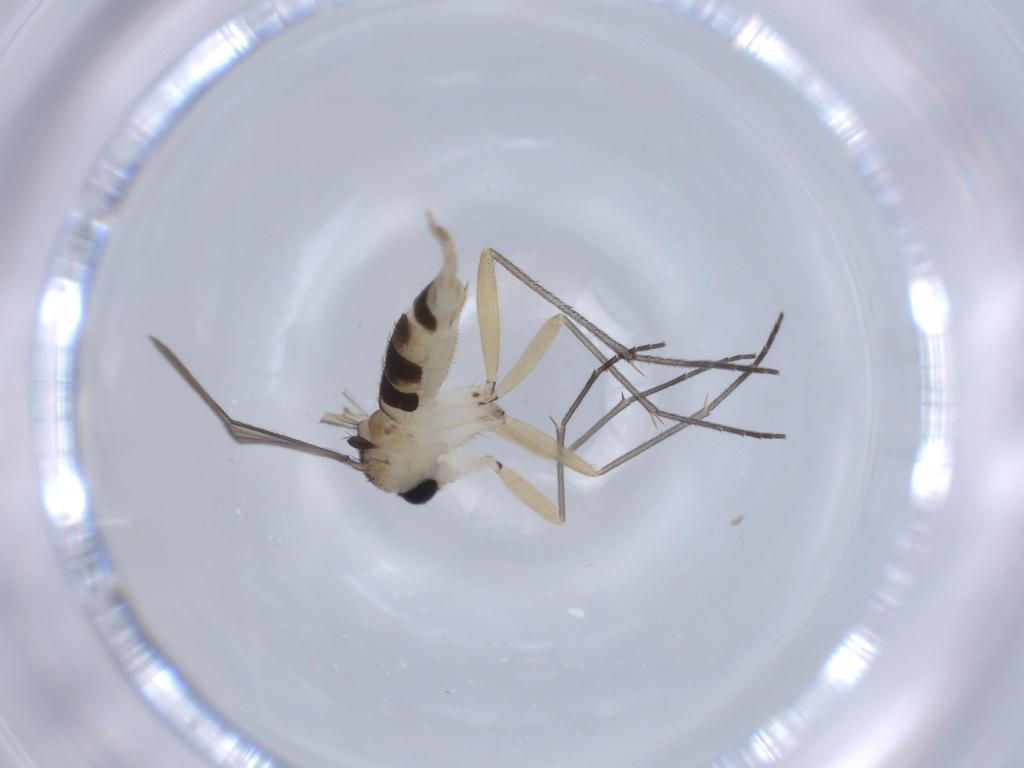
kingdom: Animalia
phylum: Arthropoda
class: Insecta
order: Diptera
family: Sciaridae
